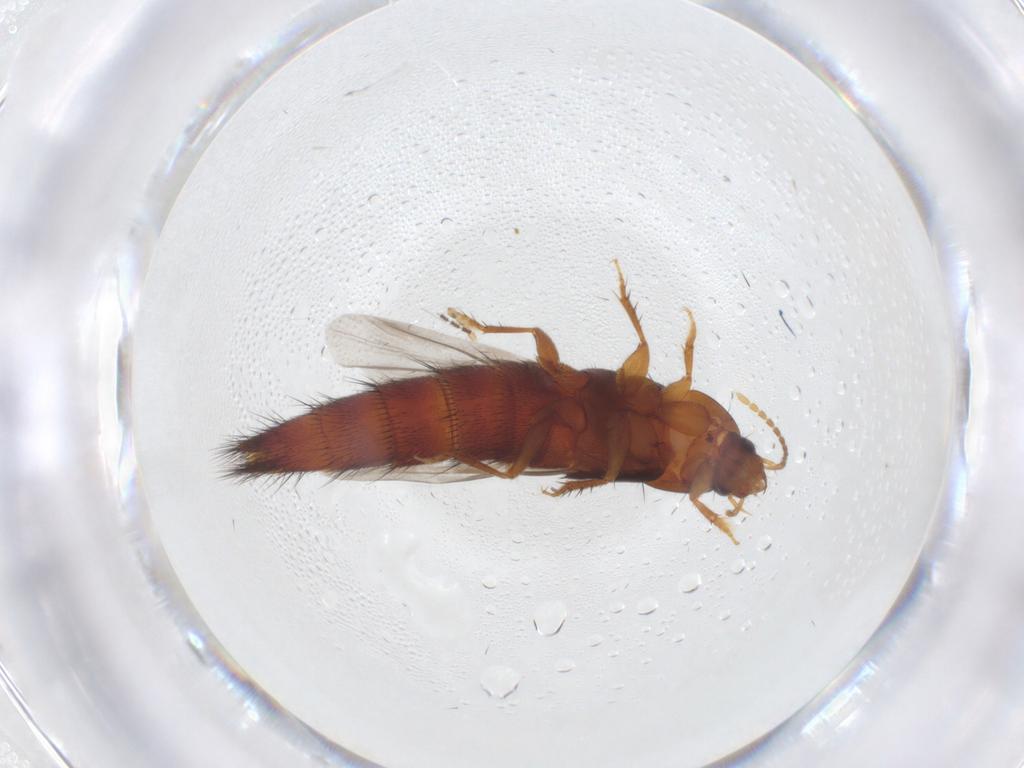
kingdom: Animalia
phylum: Arthropoda
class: Insecta
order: Coleoptera
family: Staphylinidae
